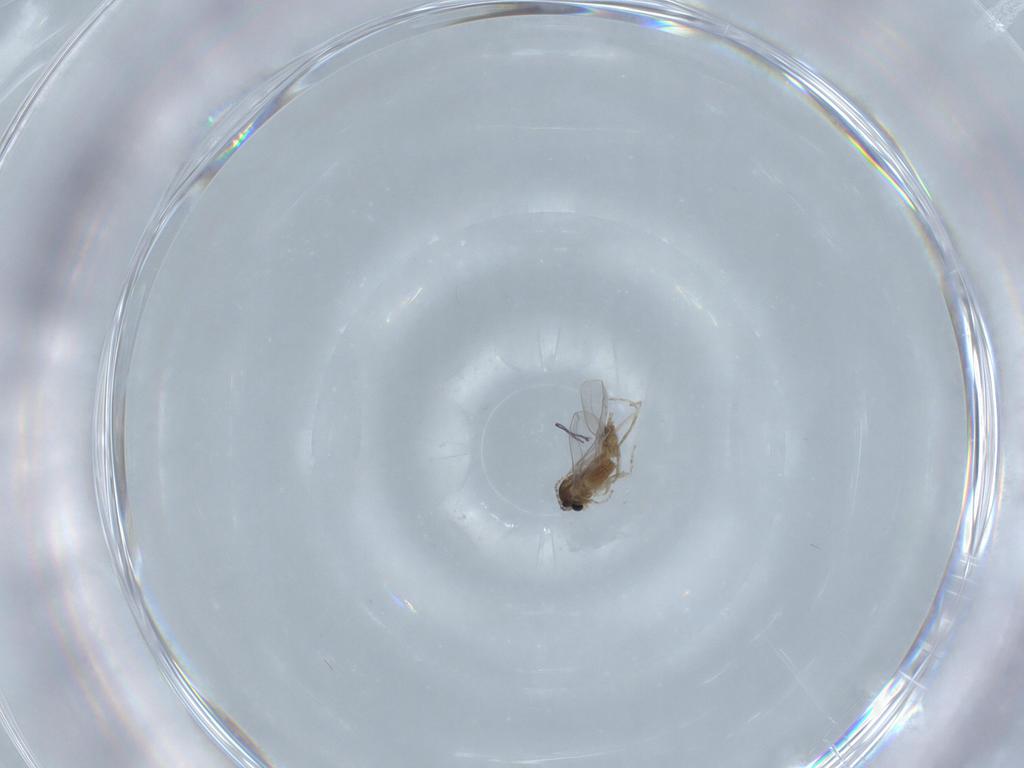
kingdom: Animalia
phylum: Arthropoda
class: Insecta
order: Diptera
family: Chironomidae
